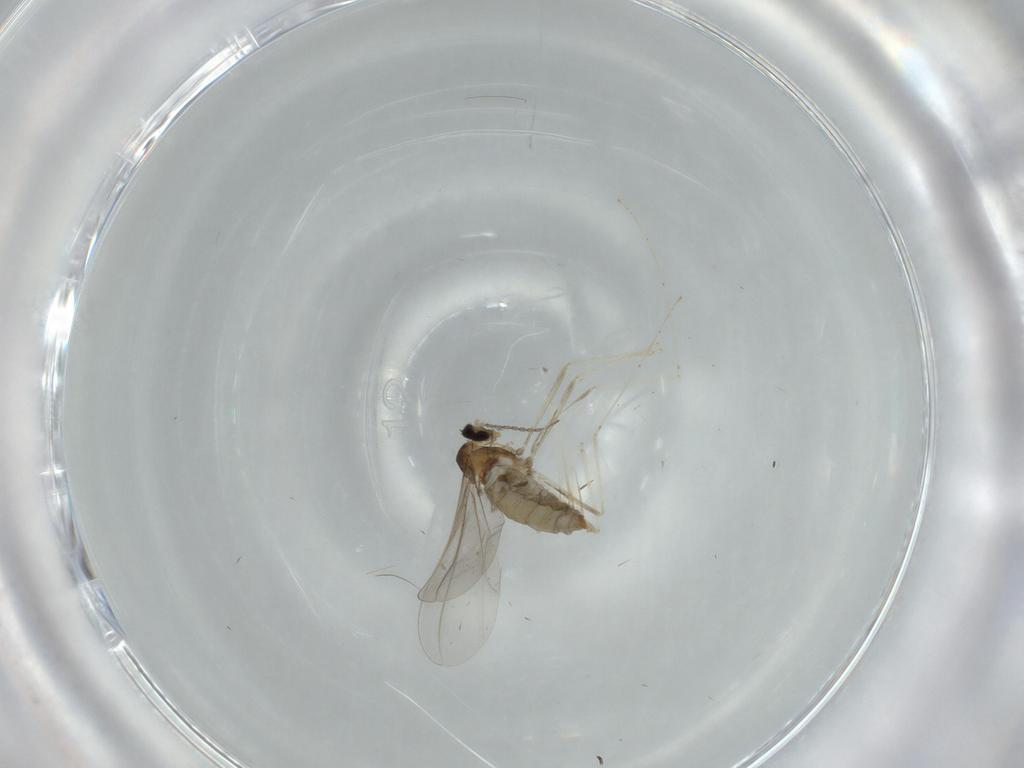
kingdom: Animalia
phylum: Arthropoda
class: Insecta
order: Diptera
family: Cecidomyiidae
